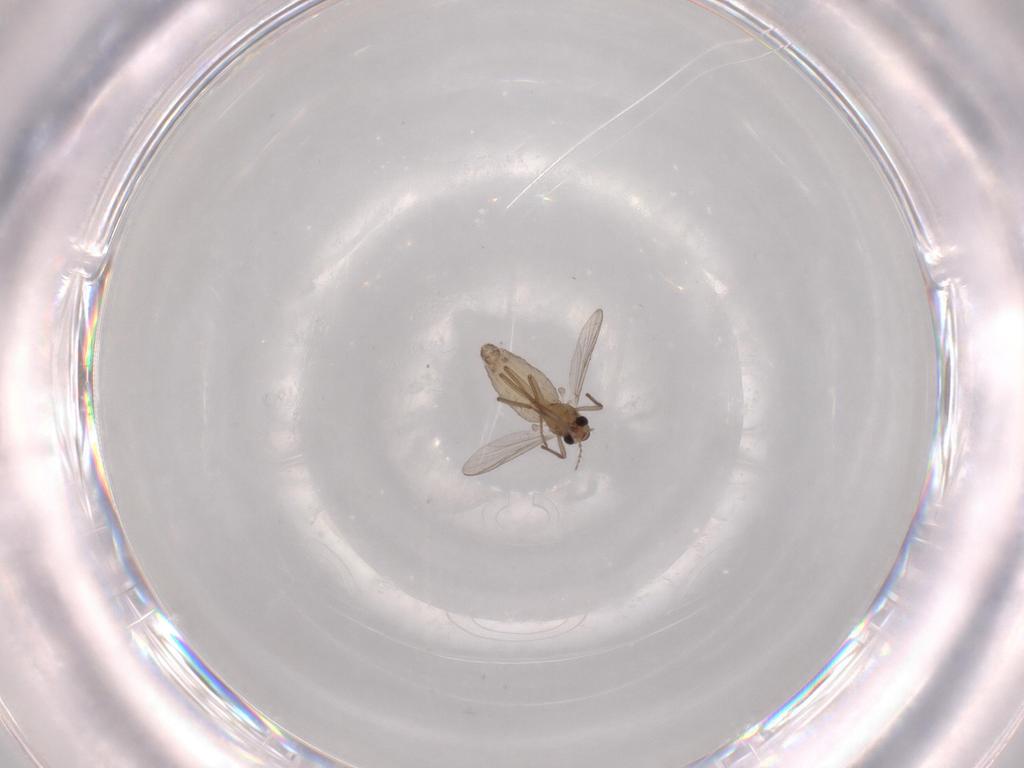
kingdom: Animalia
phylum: Arthropoda
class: Insecta
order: Diptera
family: Chironomidae
